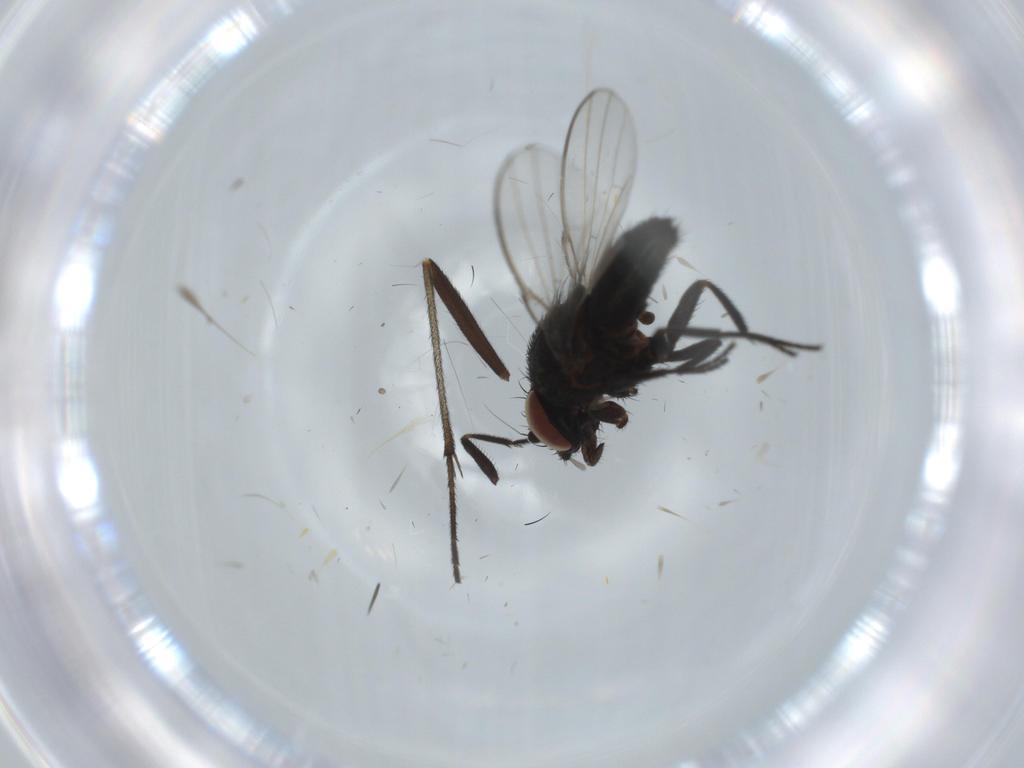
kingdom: Animalia
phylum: Arthropoda
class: Insecta
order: Diptera
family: Milichiidae
